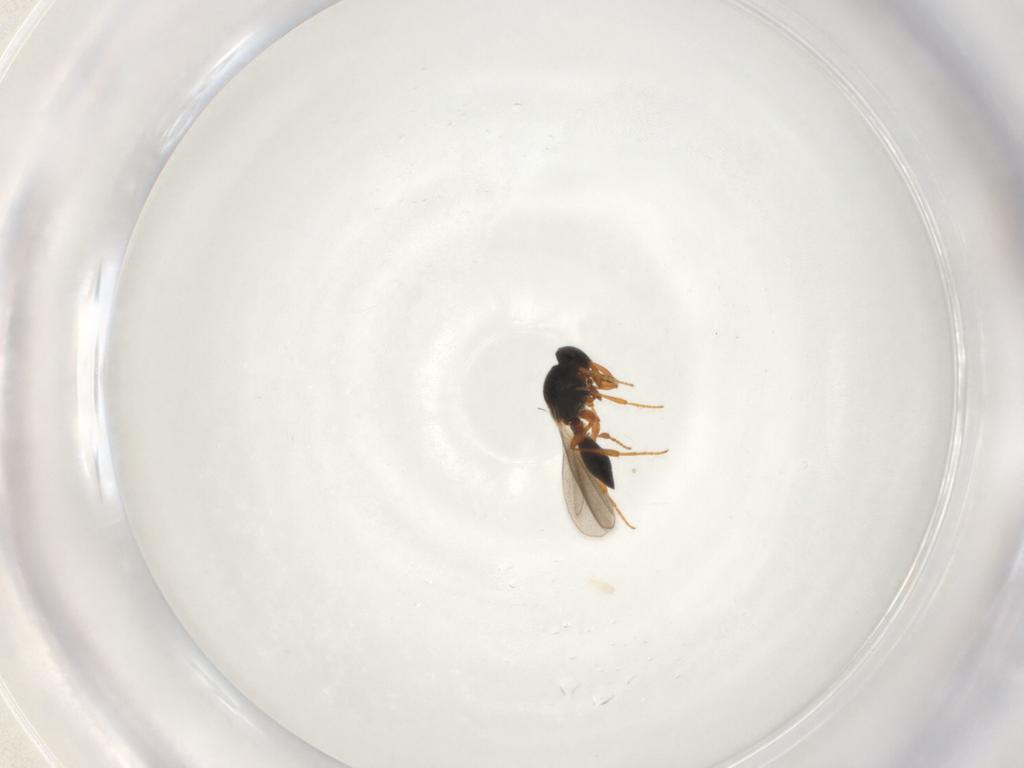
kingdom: Animalia
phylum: Arthropoda
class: Insecta
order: Hymenoptera
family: Platygastridae
